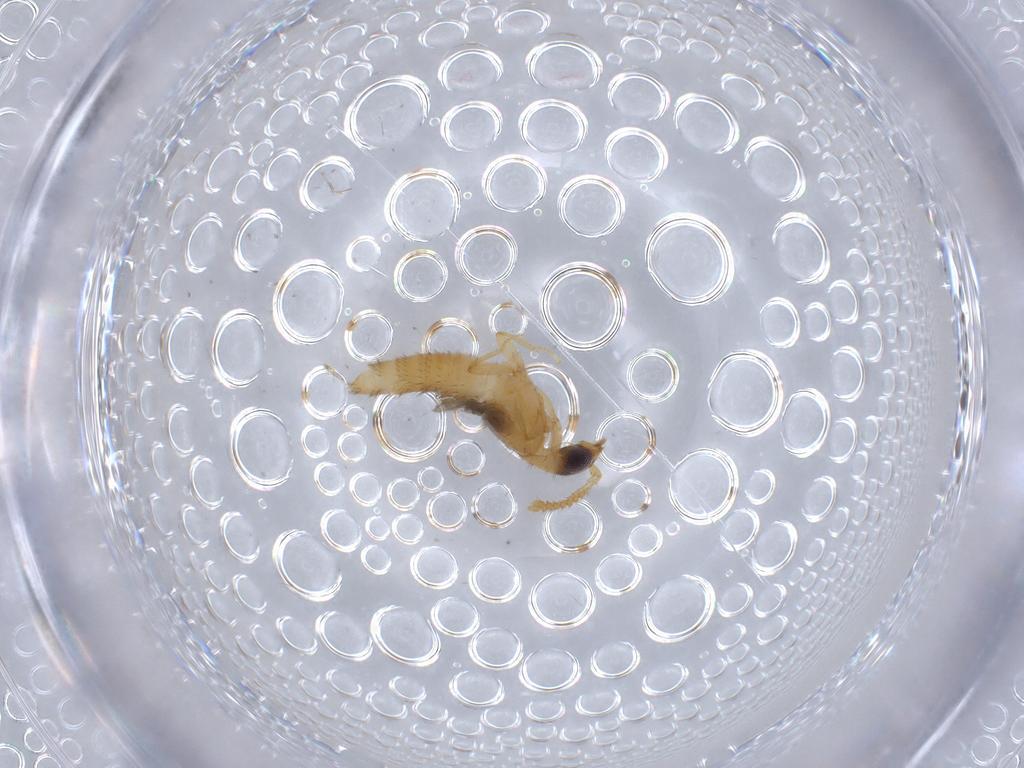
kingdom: Animalia
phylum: Arthropoda
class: Insecta
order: Coleoptera
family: Staphylinidae
